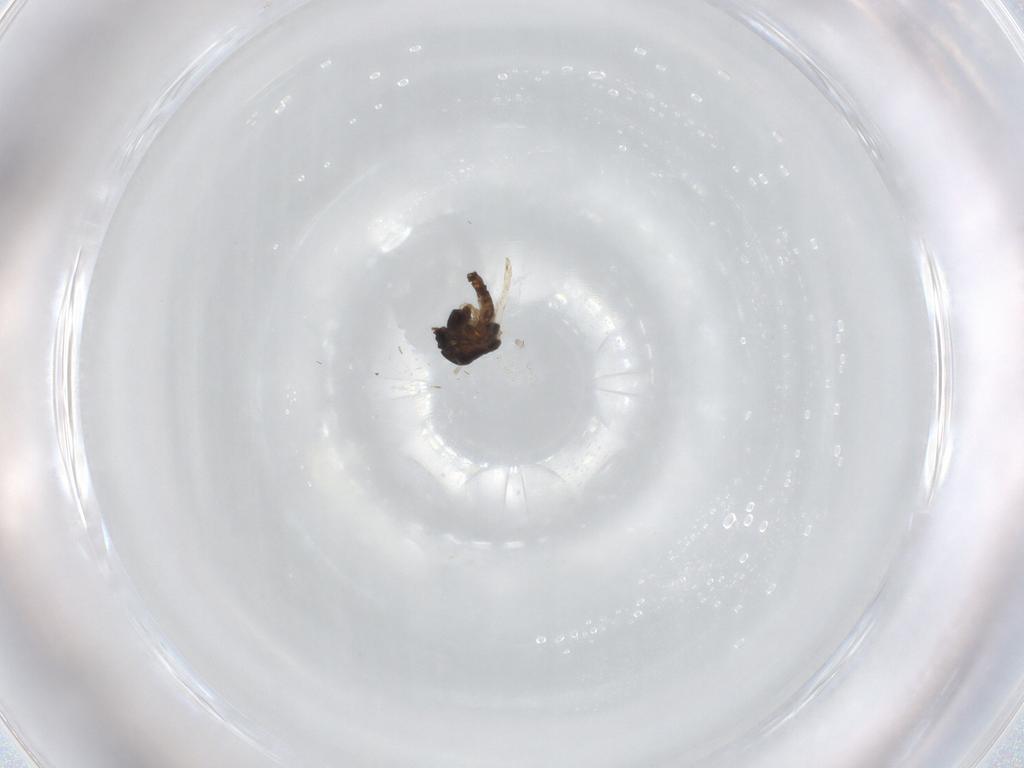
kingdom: Animalia
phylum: Arthropoda
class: Insecta
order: Diptera
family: Chironomidae
